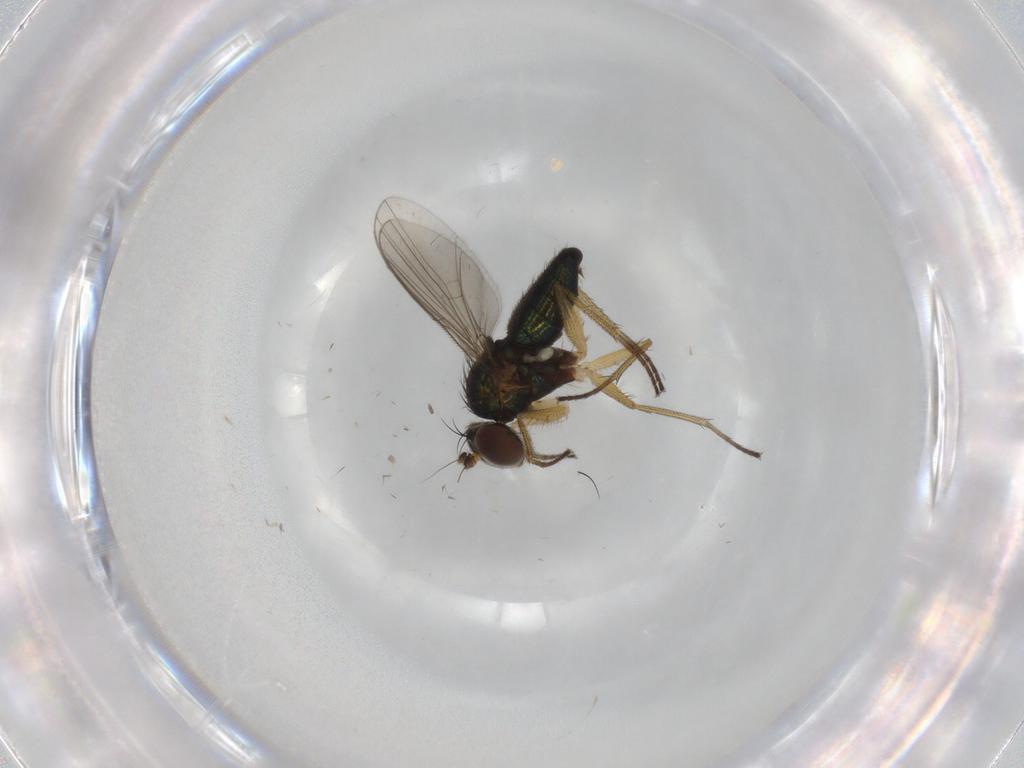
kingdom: Animalia
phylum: Arthropoda
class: Insecta
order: Diptera
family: Dolichopodidae
